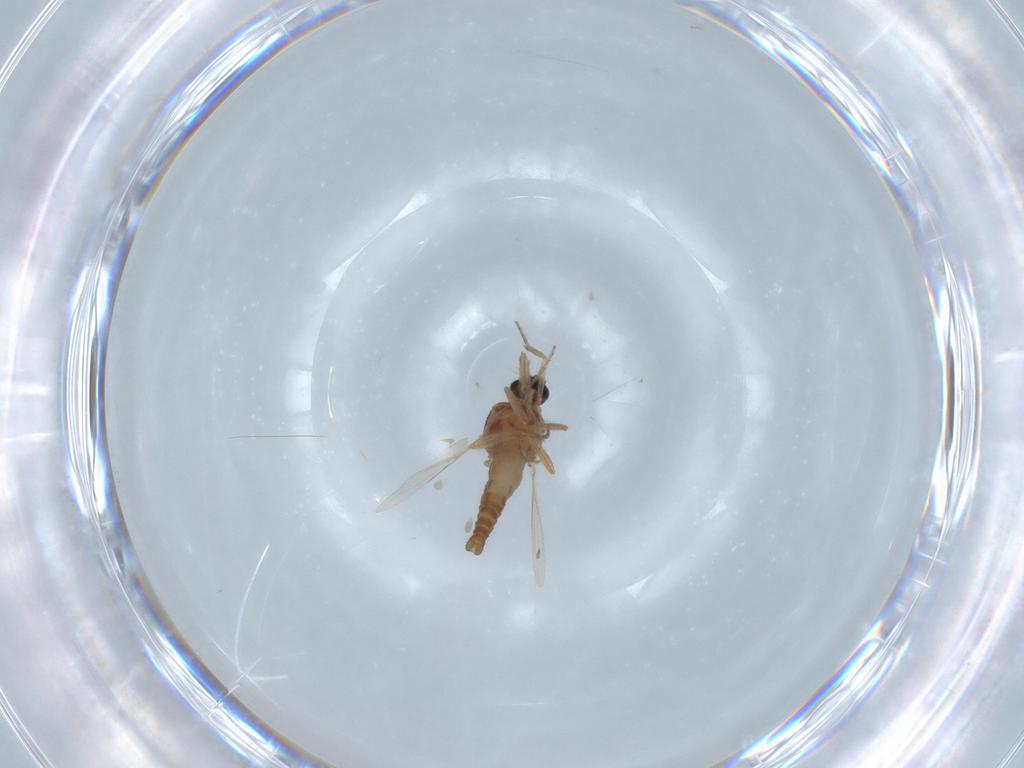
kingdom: Animalia
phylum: Arthropoda
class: Insecta
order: Diptera
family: Ceratopogonidae
